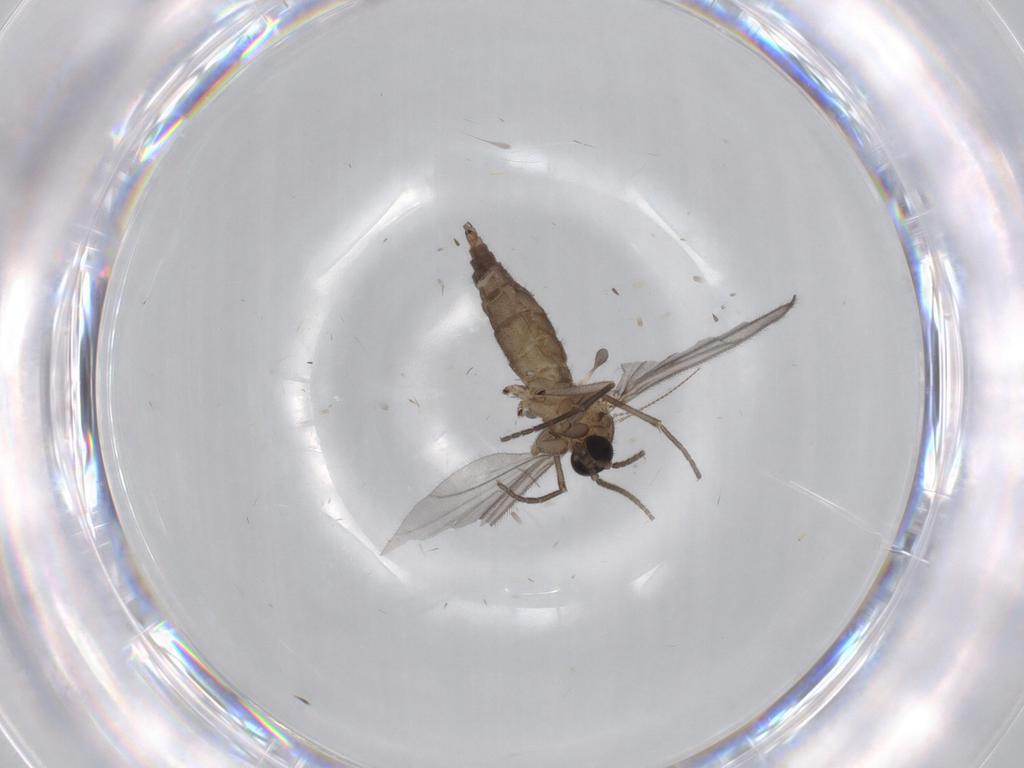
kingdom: Animalia
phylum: Arthropoda
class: Insecta
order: Diptera
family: Sciaridae
